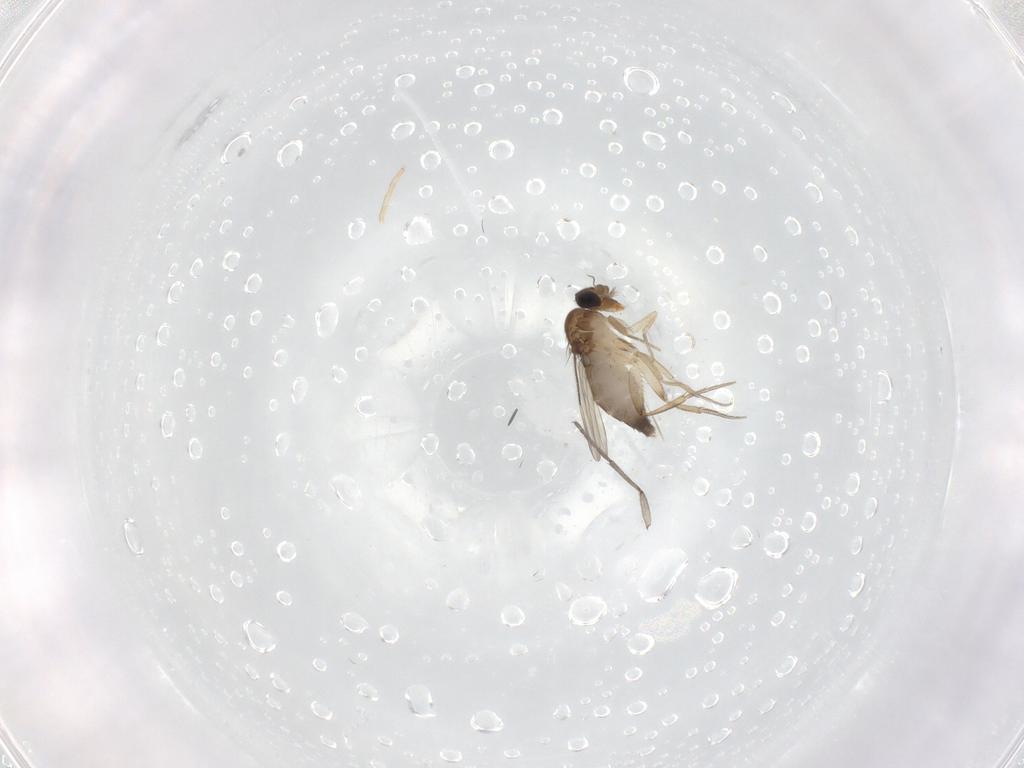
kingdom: Animalia
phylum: Arthropoda
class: Insecta
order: Diptera
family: Sciaridae
